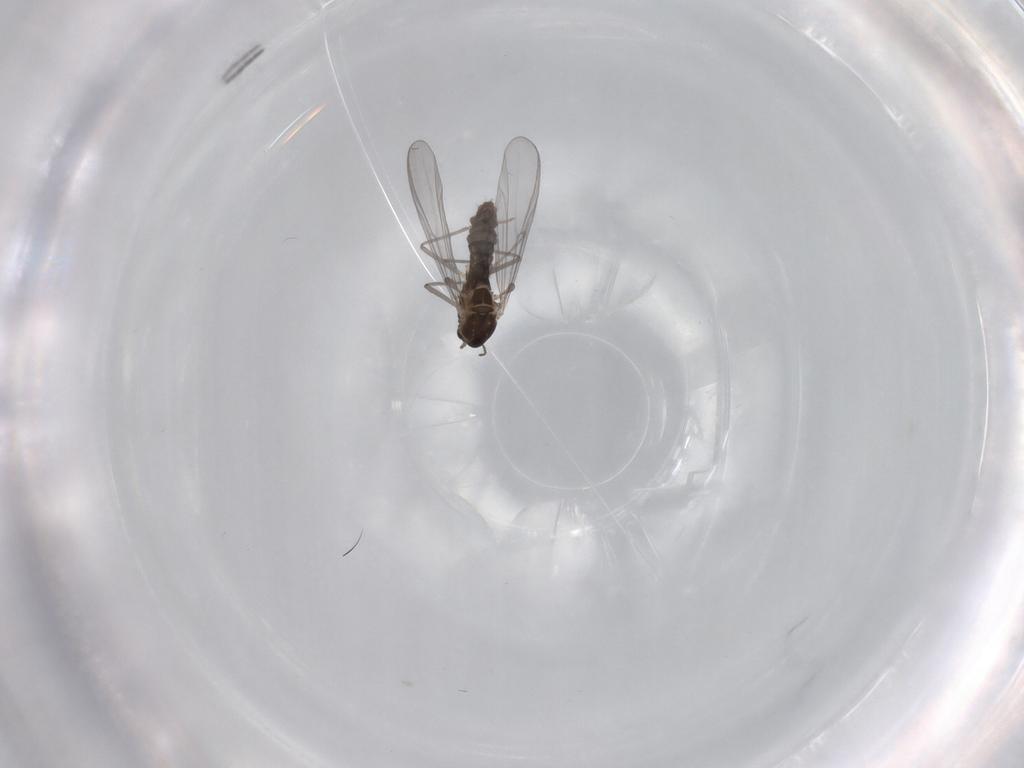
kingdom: Animalia
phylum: Arthropoda
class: Insecta
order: Diptera
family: Chironomidae
